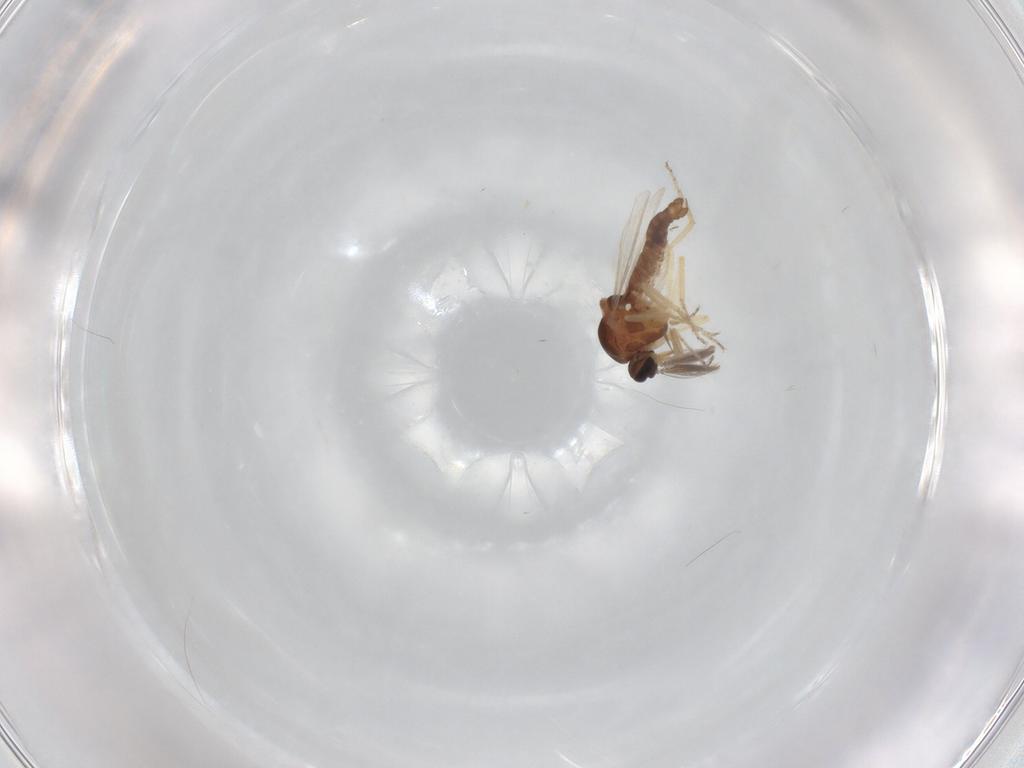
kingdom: Animalia
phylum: Arthropoda
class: Insecta
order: Diptera
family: Ceratopogonidae
